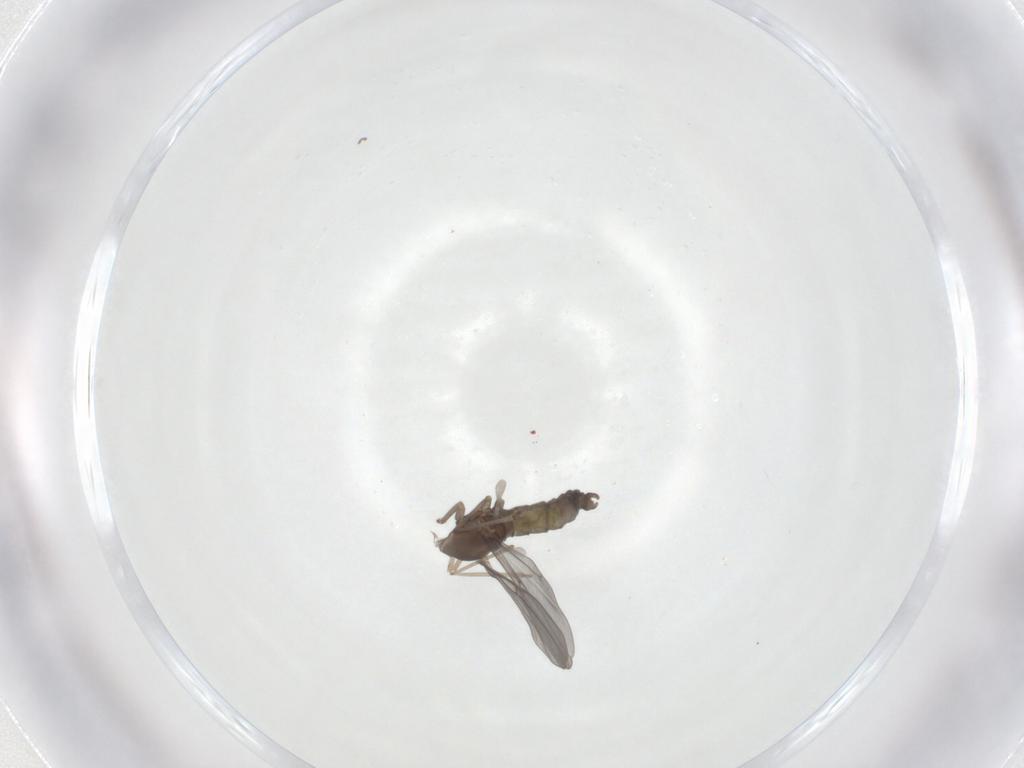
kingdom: Animalia
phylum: Arthropoda
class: Insecta
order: Diptera
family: Cecidomyiidae
